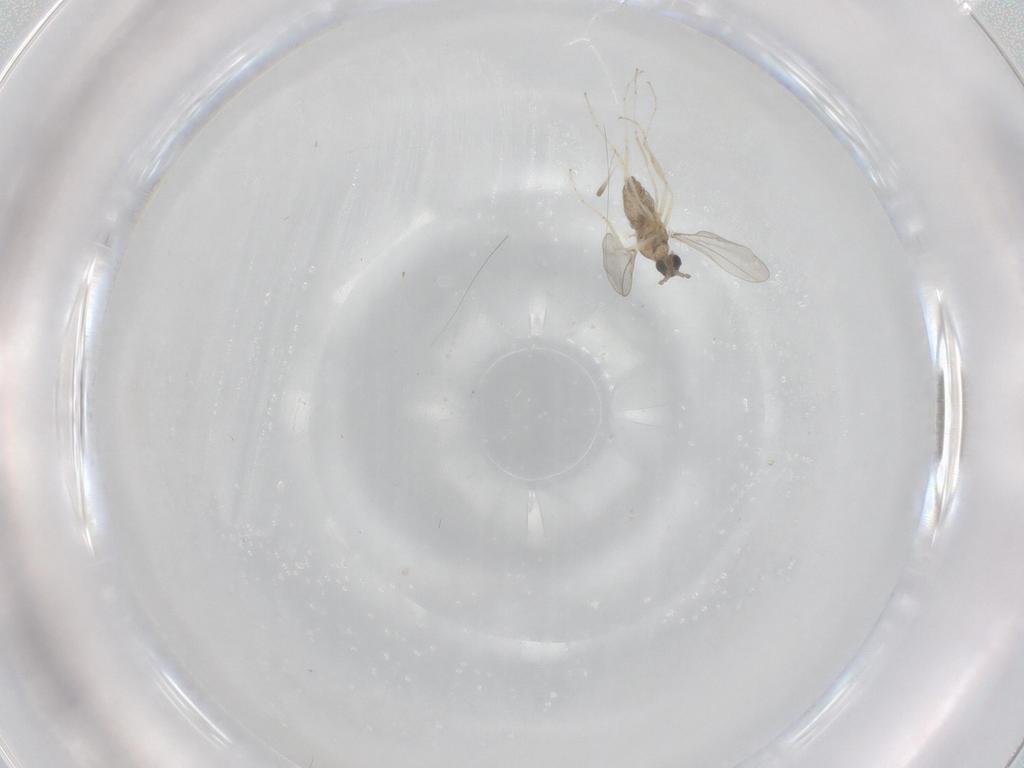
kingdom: Animalia
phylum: Arthropoda
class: Insecta
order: Diptera
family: Cecidomyiidae
